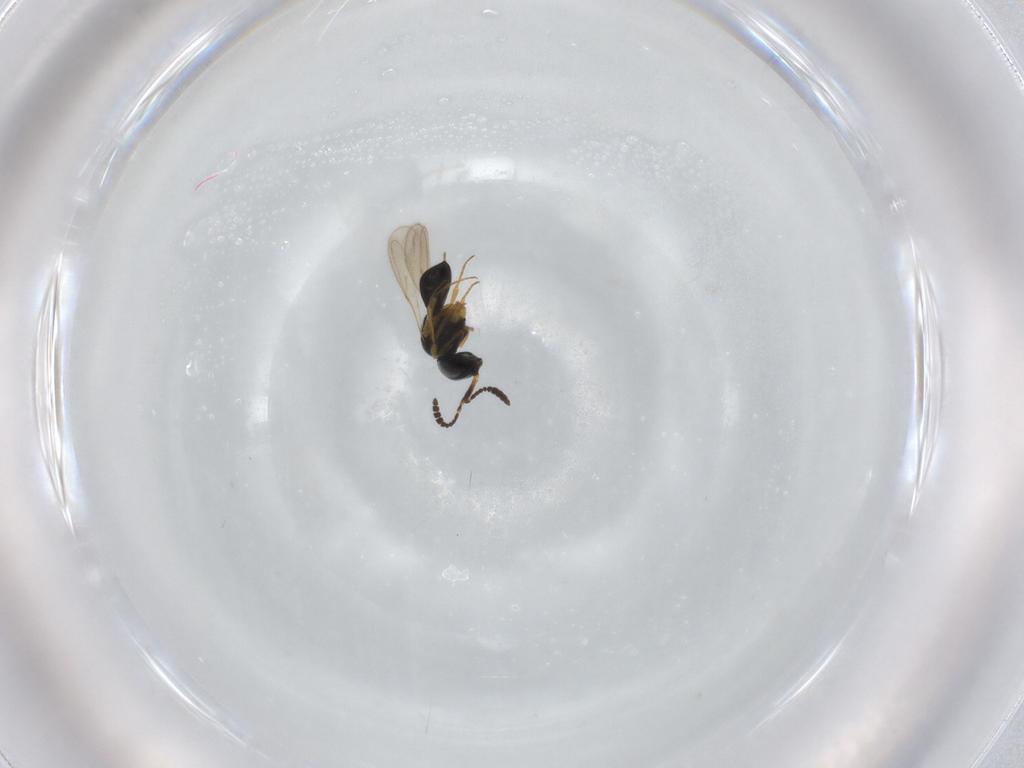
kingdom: Animalia
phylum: Arthropoda
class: Insecta
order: Hymenoptera
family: Scelionidae
